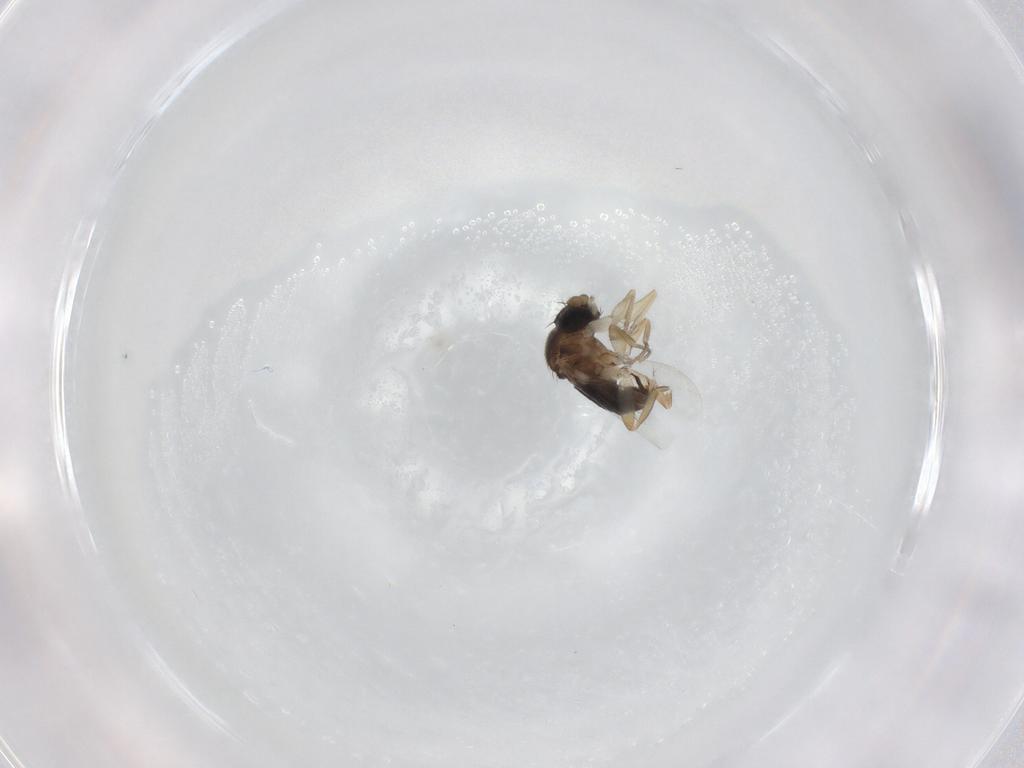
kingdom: Animalia
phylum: Arthropoda
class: Insecta
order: Diptera
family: Phoridae
